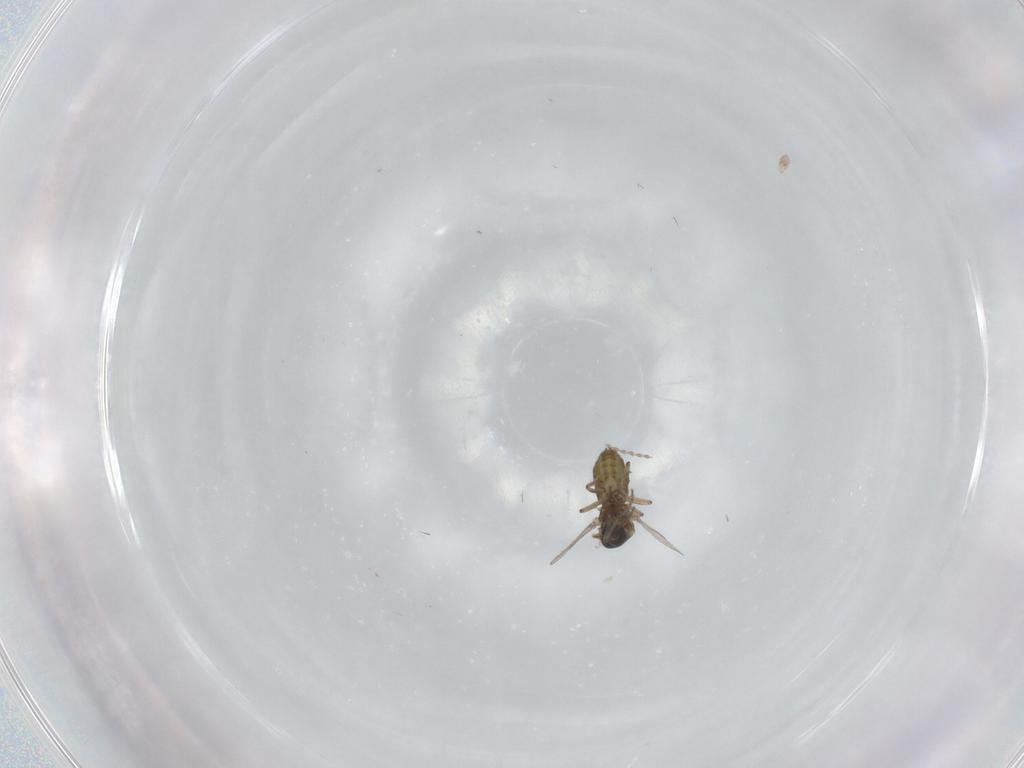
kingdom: Animalia
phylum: Arthropoda
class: Insecta
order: Diptera
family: Ceratopogonidae
